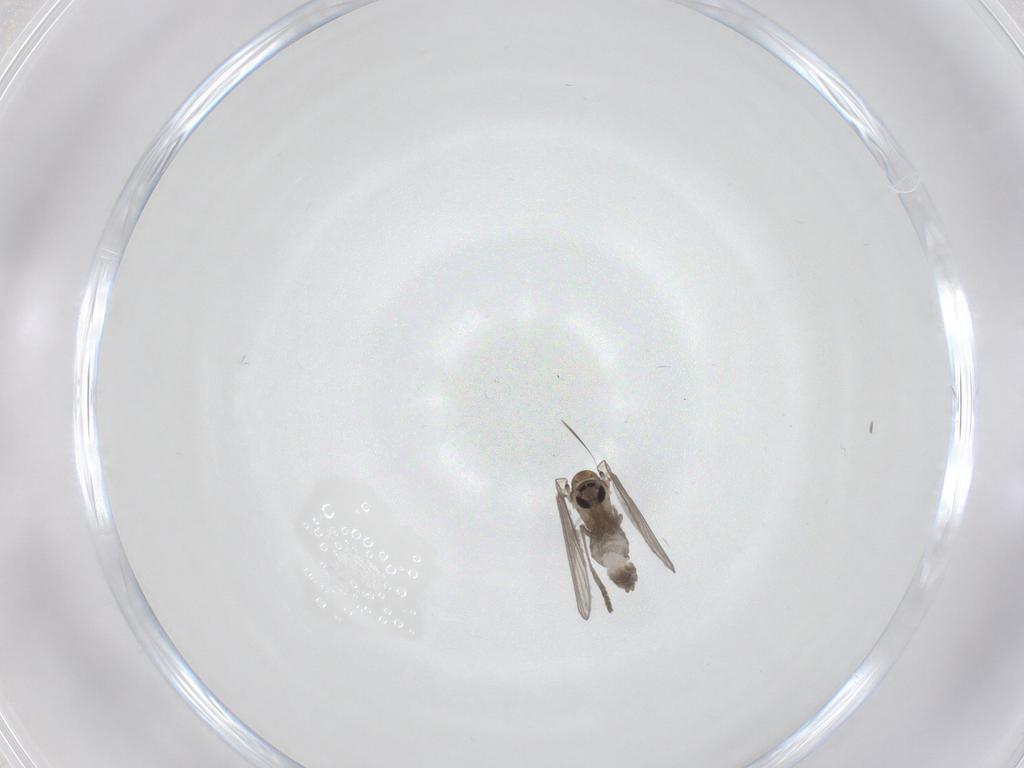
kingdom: Animalia
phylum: Arthropoda
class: Insecta
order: Diptera
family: Psychodidae
